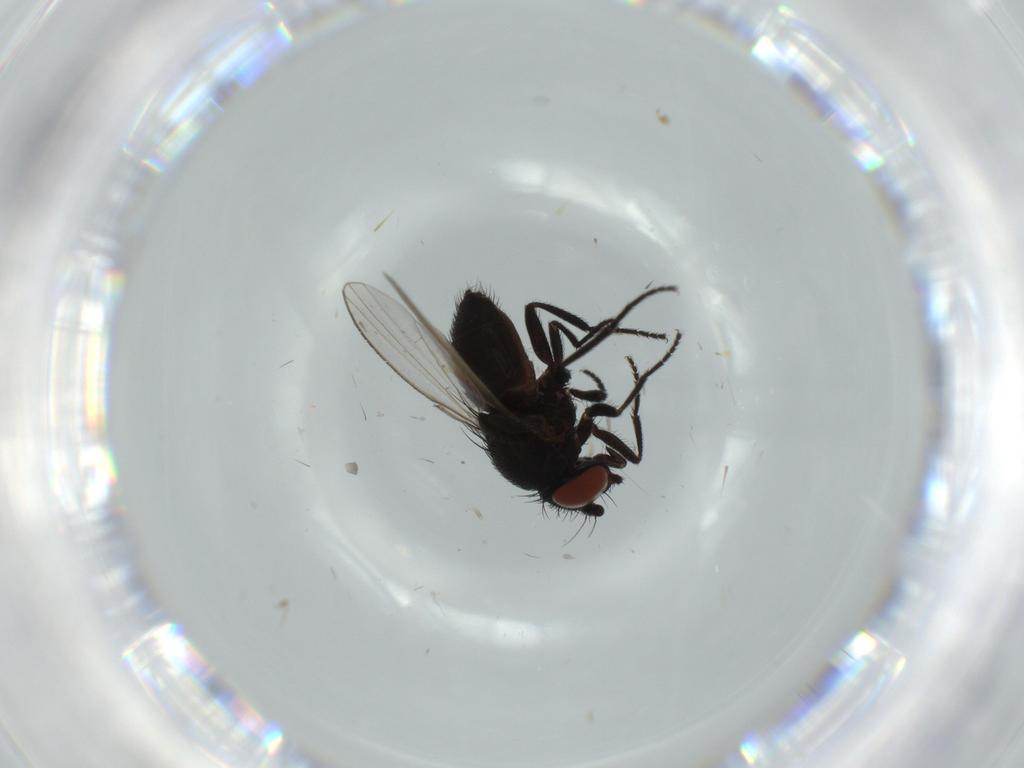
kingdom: Animalia
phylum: Arthropoda
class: Insecta
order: Diptera
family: Milichiidae
